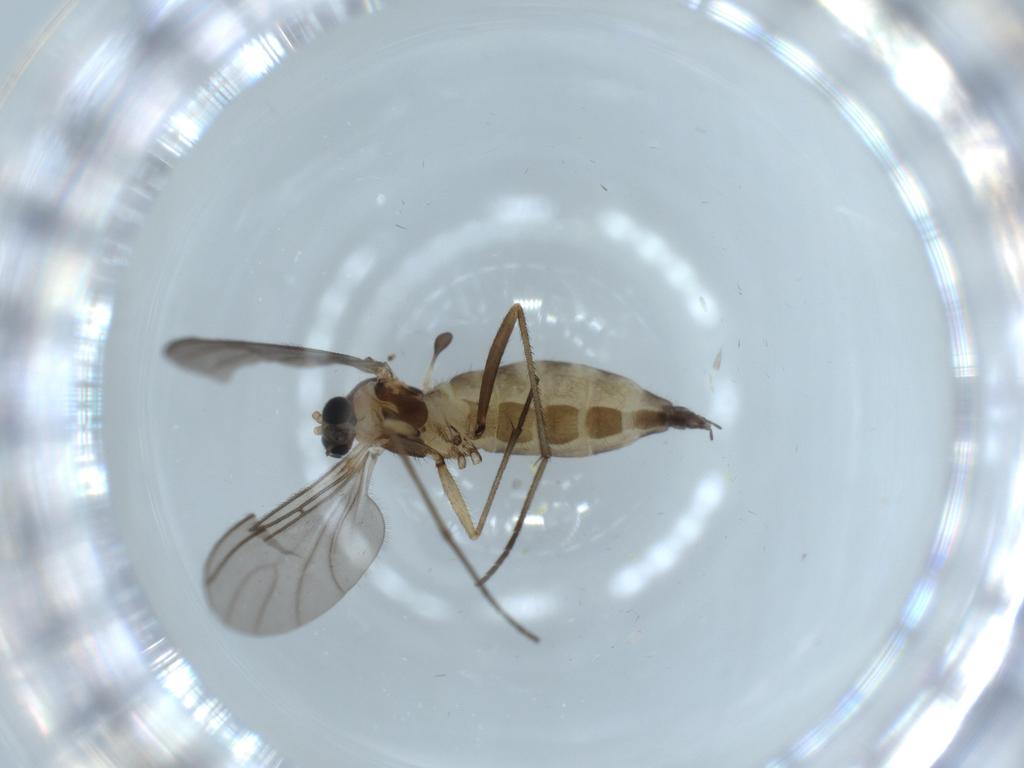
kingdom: Animalia
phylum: Arthropoda
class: Insecta
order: Diptera
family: Sciaridae
